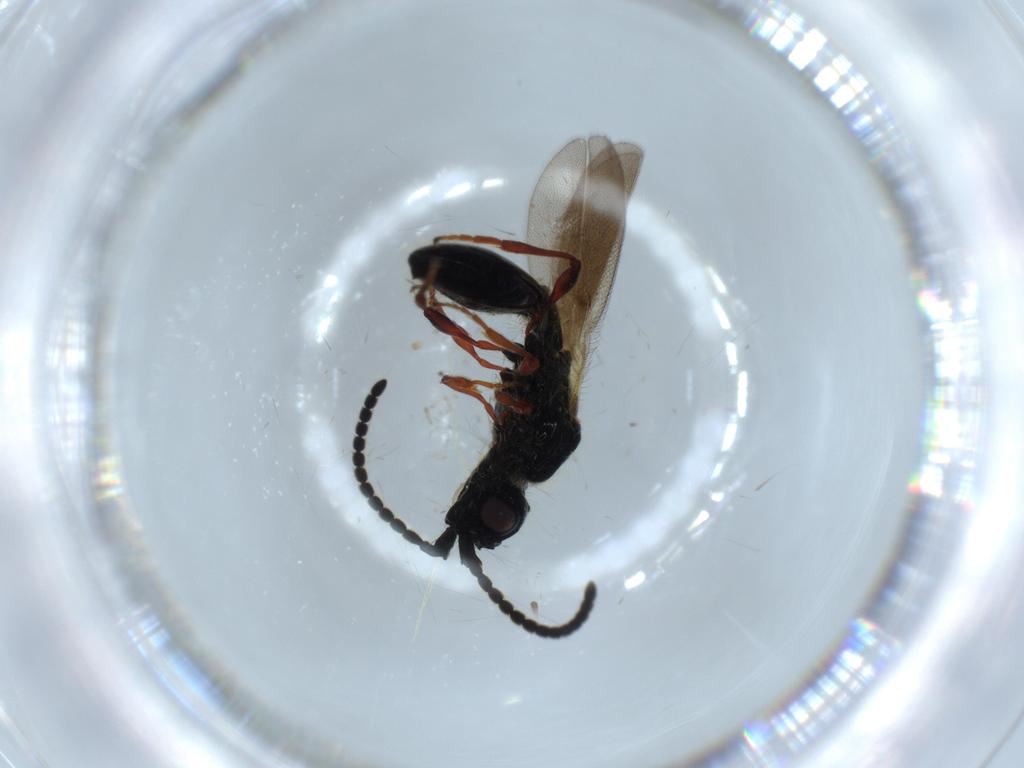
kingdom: Animalia
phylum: Arthropoda
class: Insecta
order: Hymenoptera
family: Diapriidae
